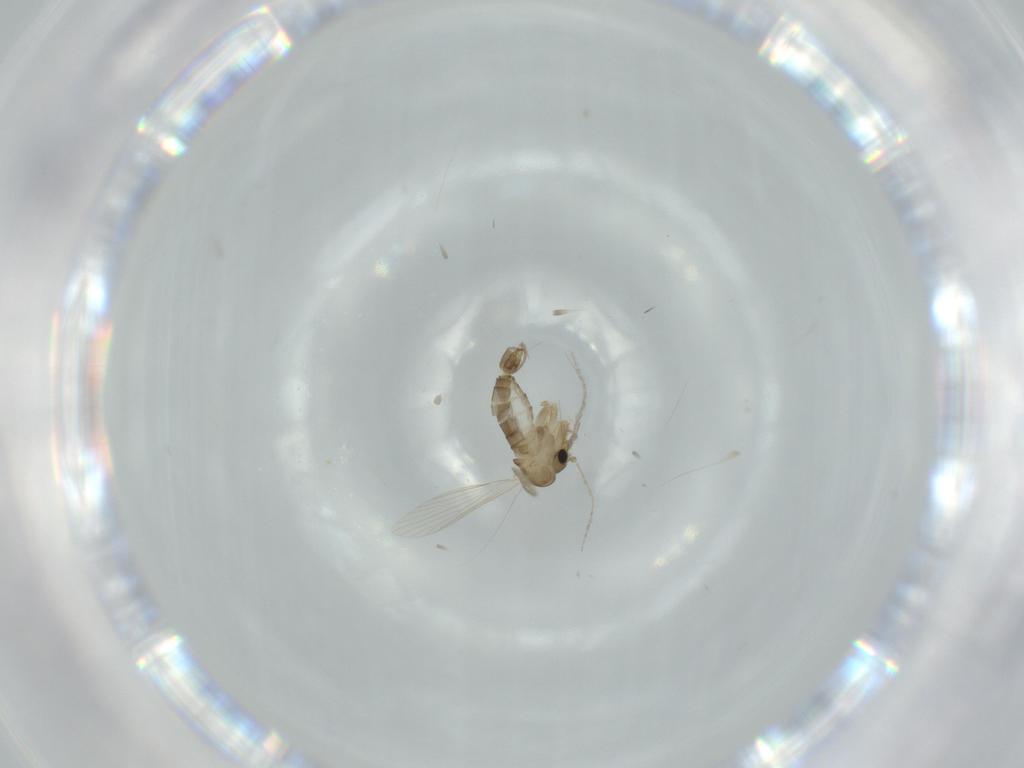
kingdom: Animalia
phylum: Arthropoda
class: Insecta
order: Diptera
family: Psychodidae
